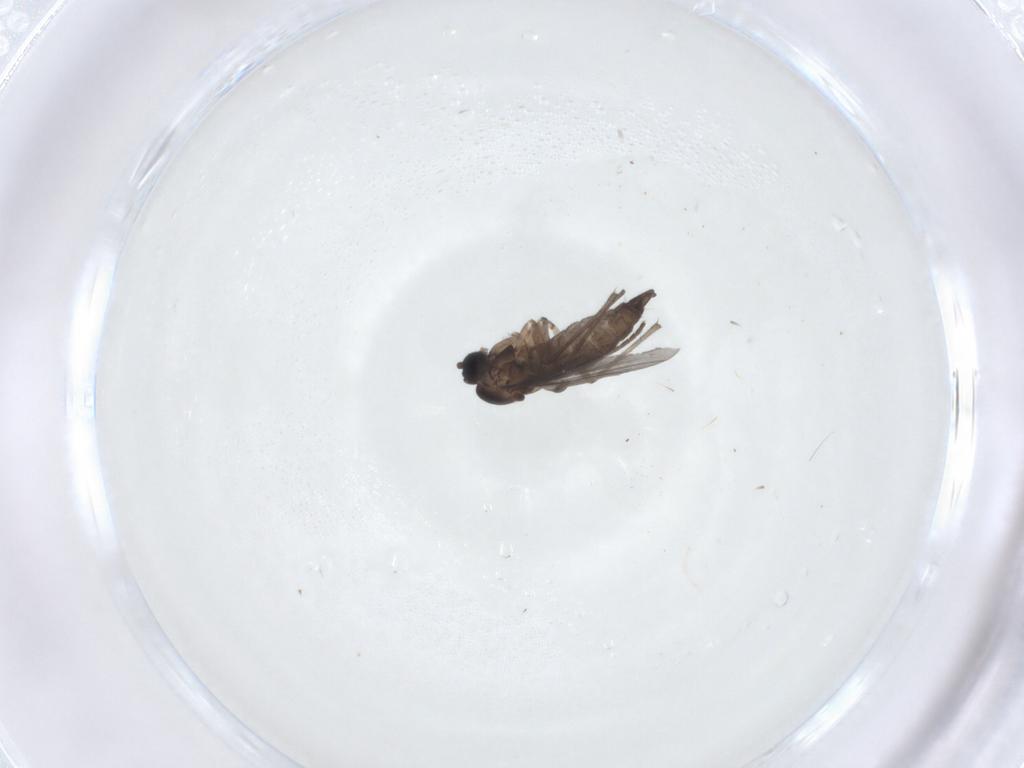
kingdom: Animalia
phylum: Arthropoda
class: Insecta
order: Diptera
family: Sciaridae
